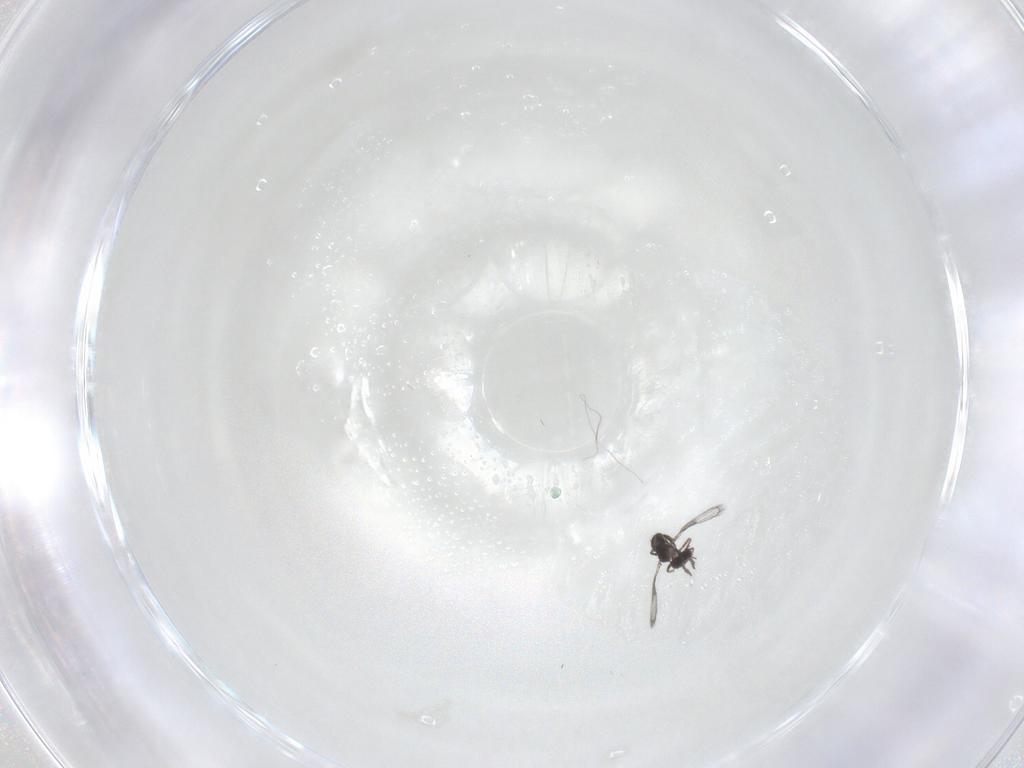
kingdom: Animalia
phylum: Arthropoda
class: Insecta
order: Hymenoptera
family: Trichogrammatidae
